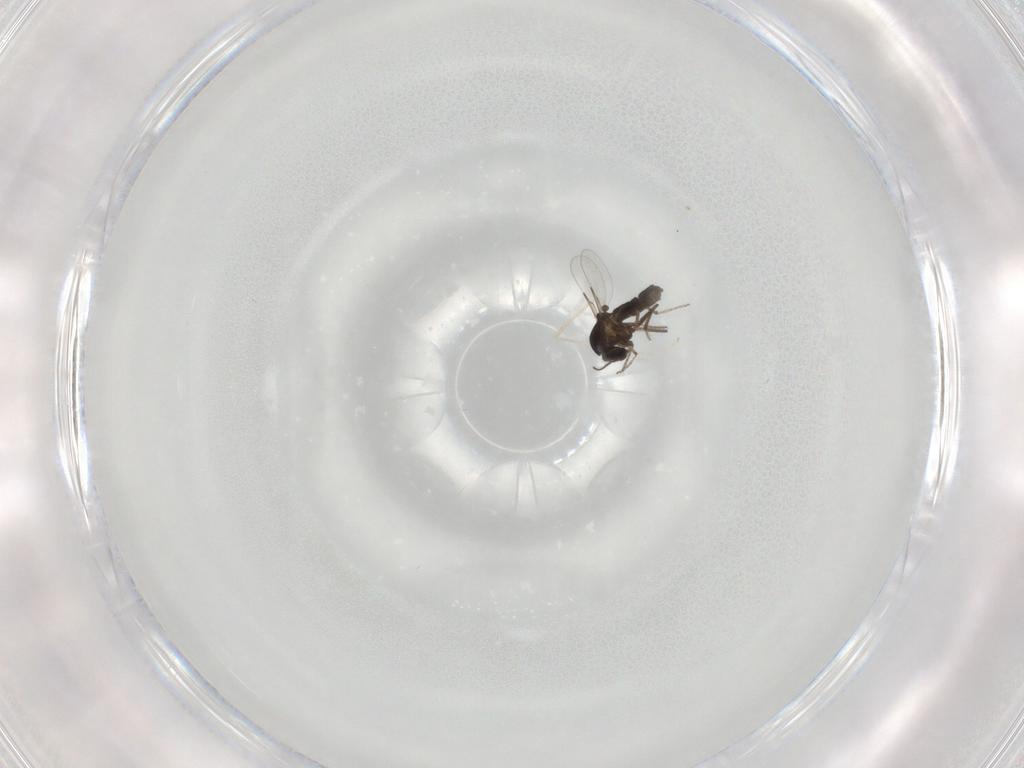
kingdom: Animalia
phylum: Arthropoda
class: Insecta
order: Diptera
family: Ceratopogonidae
